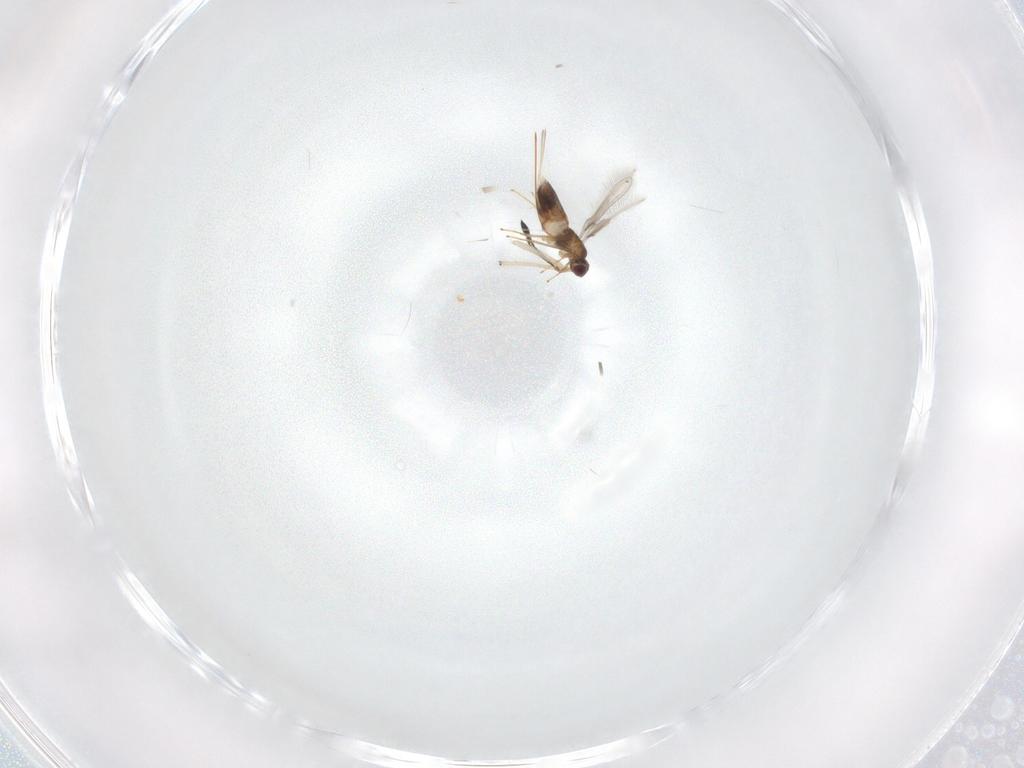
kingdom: Animalia
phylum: Arthropoda
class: Insecta
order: Hymenoptera
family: Mymaridae
